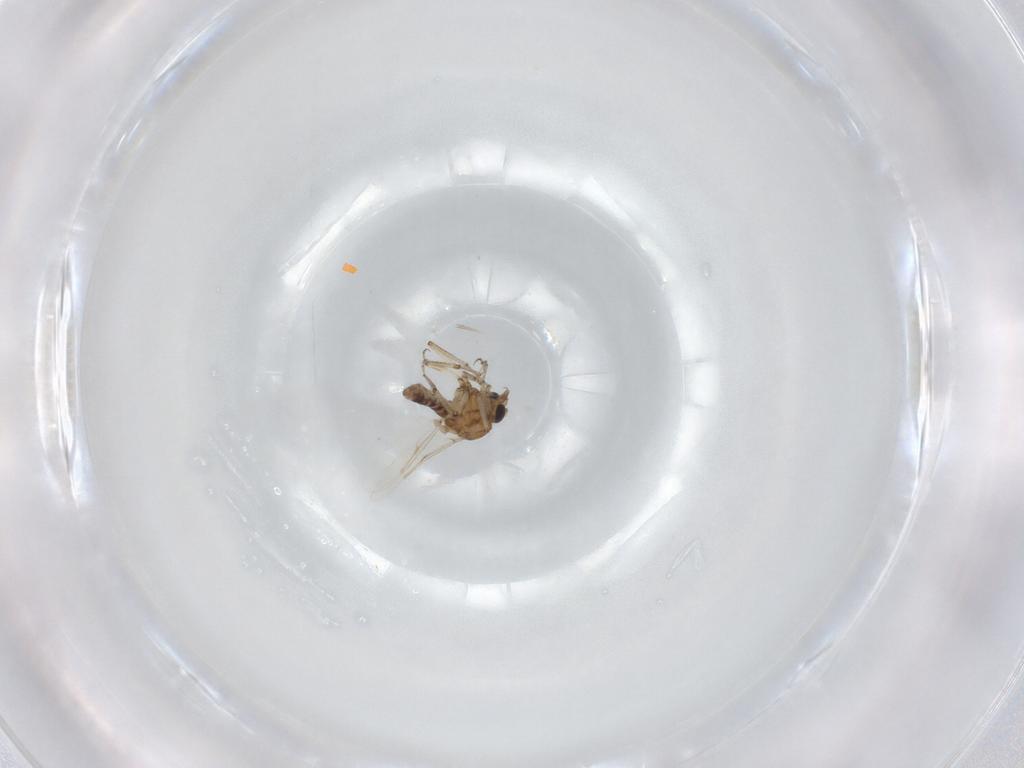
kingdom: Animalia
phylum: Arthropoda
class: Insecta
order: Diptera
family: Ceratopogonidae
